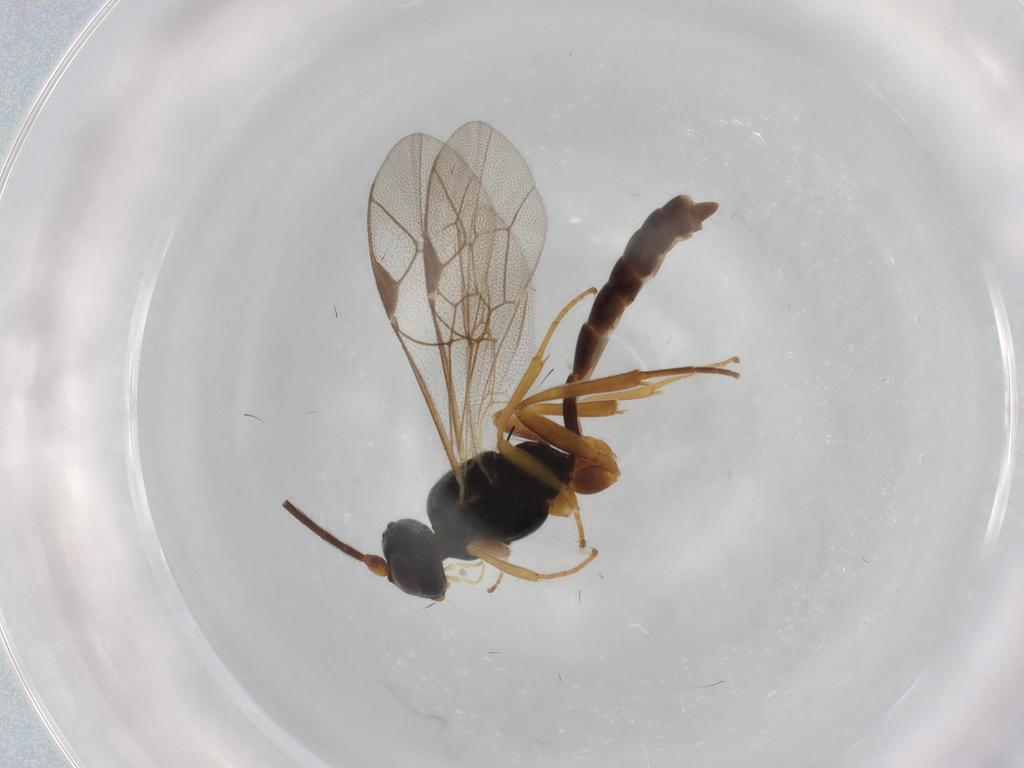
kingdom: Animalia
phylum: Arthropoda
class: Insecta
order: Hymenoptera
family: Ichneumonidae
